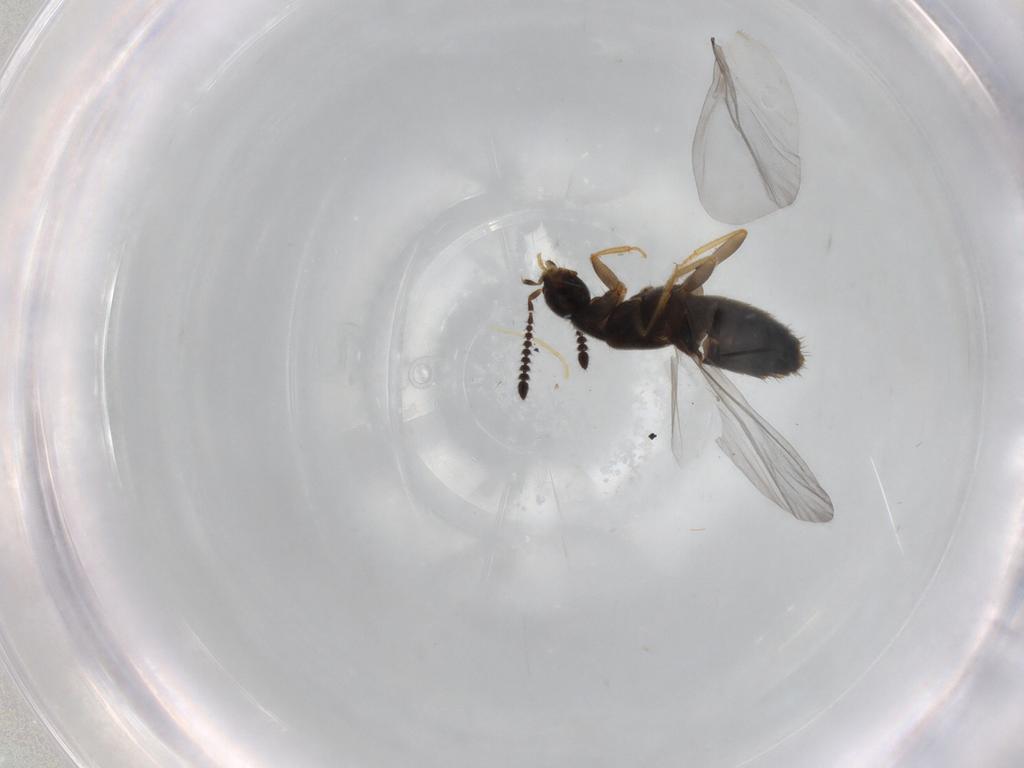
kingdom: Animalia
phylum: Arthropoda
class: Insecta
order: Coleoptera
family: Staphylinidae
